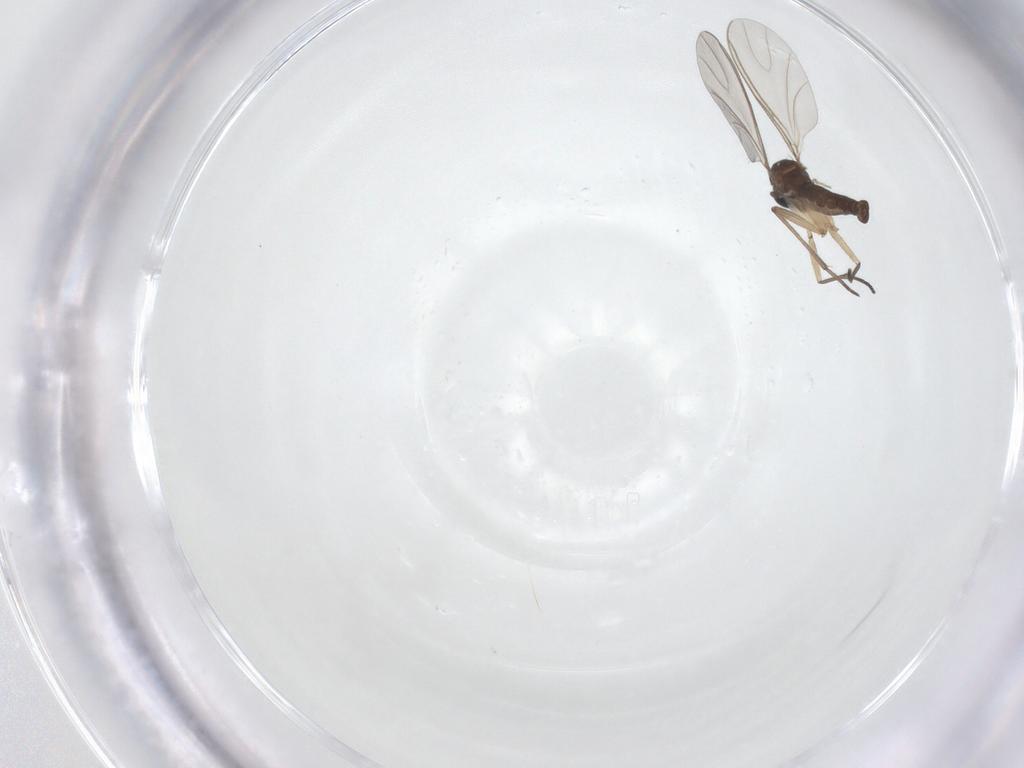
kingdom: Animalia
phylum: Arthropoda
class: Insecta
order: Diptera
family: Sciaridae
